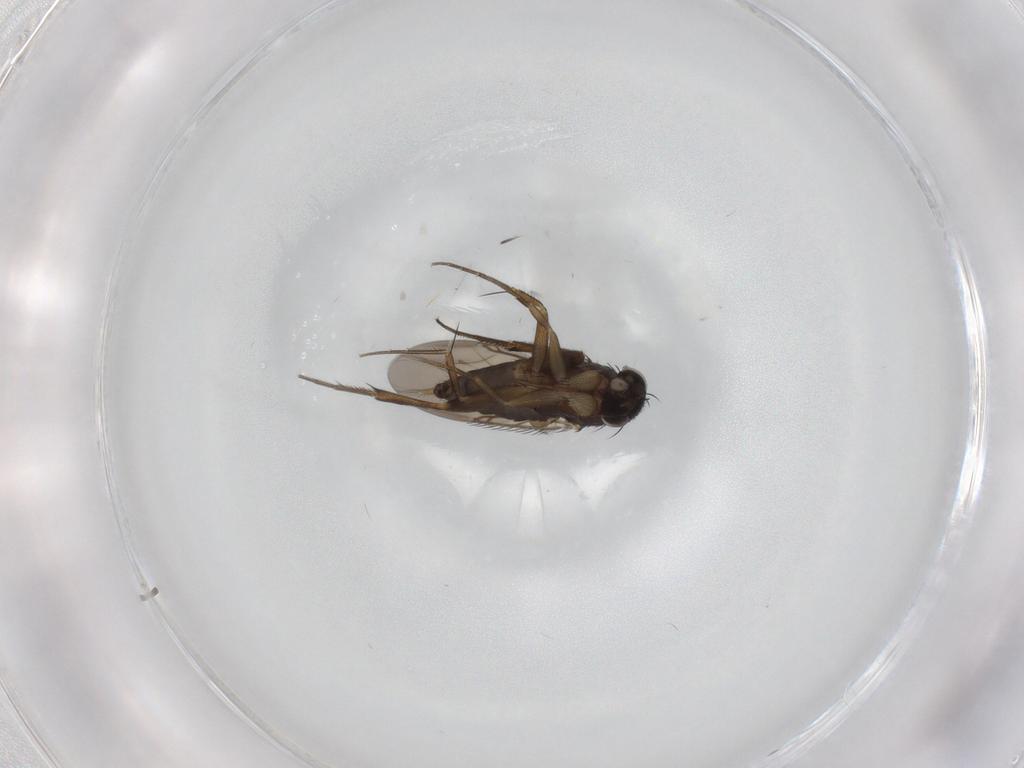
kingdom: Animalia
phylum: Arthropoda
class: Insecta
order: Diptera
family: Phoridae
